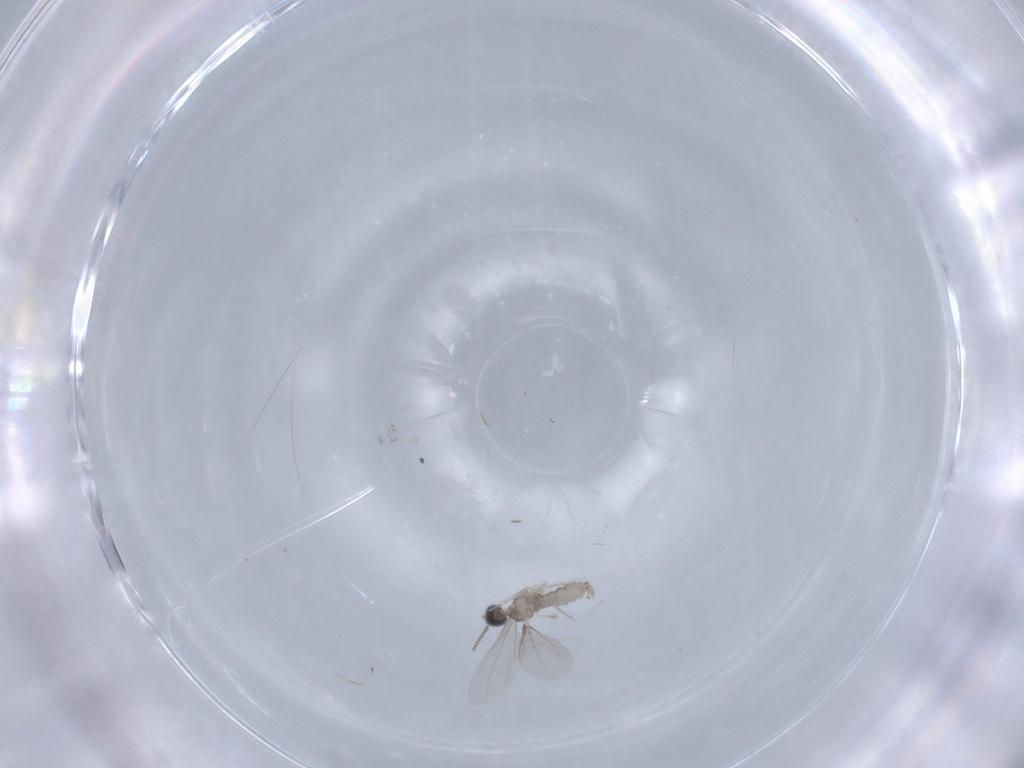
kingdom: Animalia
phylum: Arthropoda
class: Insecta
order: Diptera
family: Cecidomyiidae
